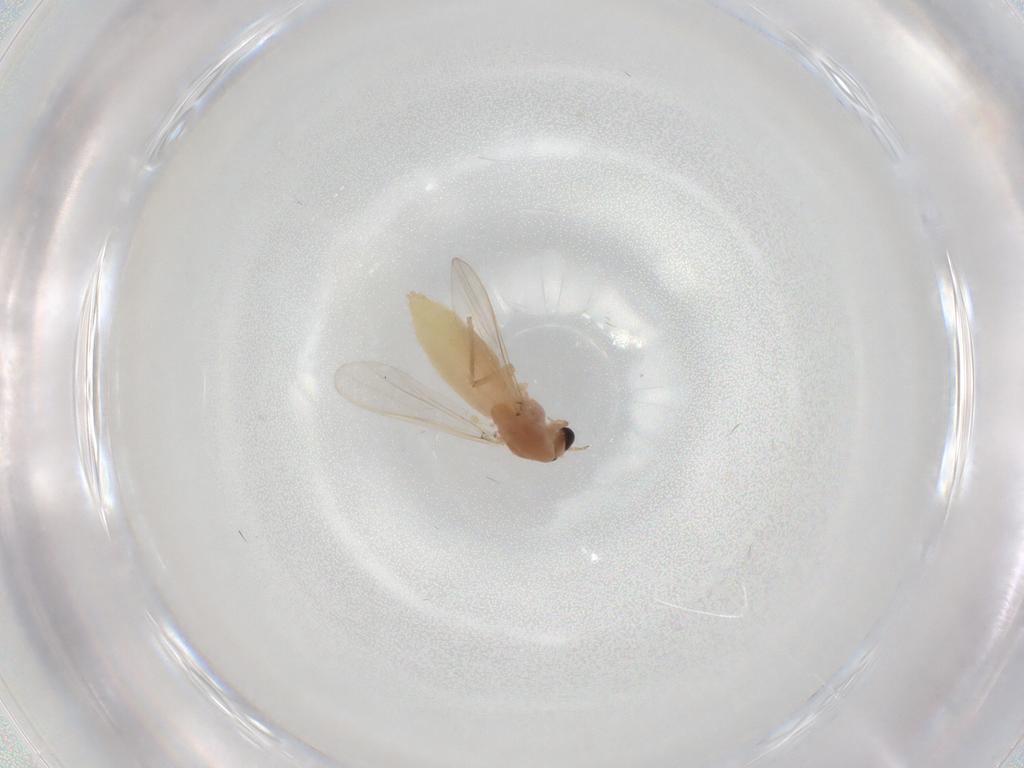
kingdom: Animalia
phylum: Arthropoda
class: Insecta
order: Diptera
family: Chironomidae
